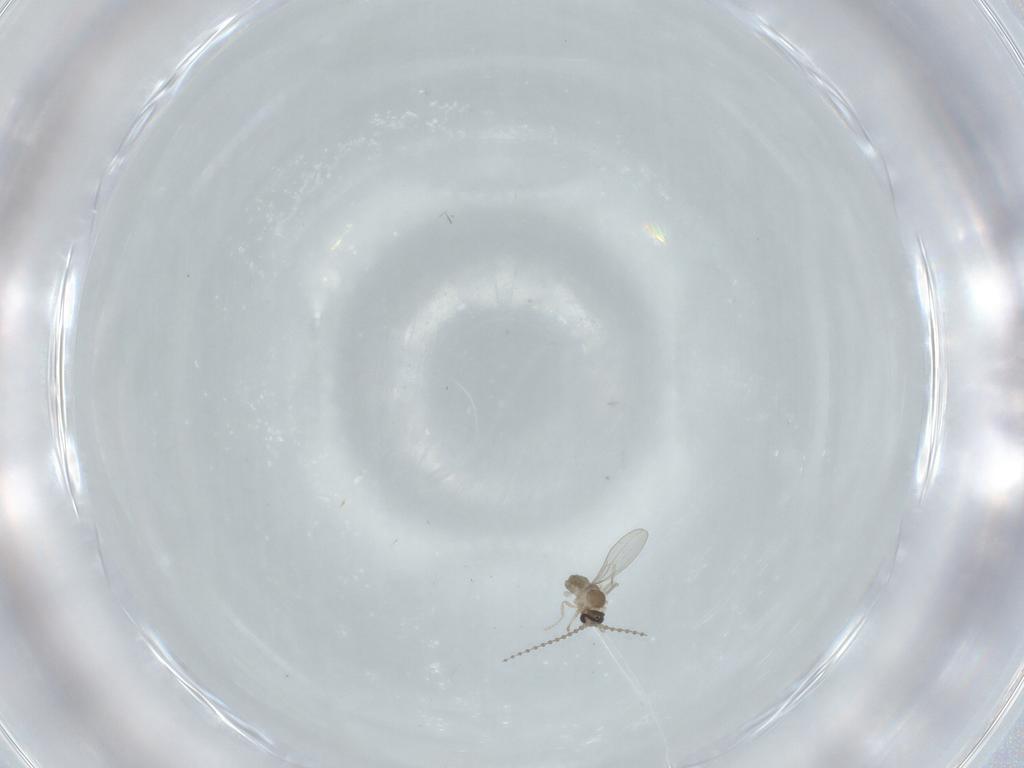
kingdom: Animalia
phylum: Arthropoda
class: Insecta
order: Diptera
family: Cecidomyiidae
